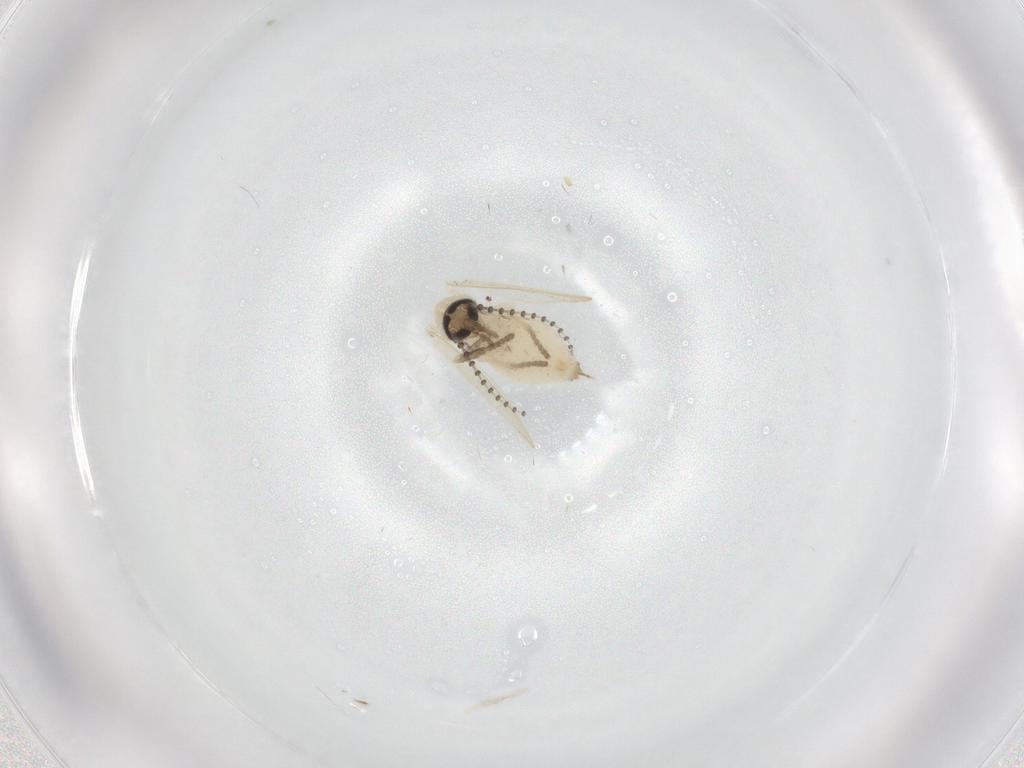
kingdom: Animalia
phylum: Arthropoda
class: Insecta
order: Diptera
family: Psychodidae
